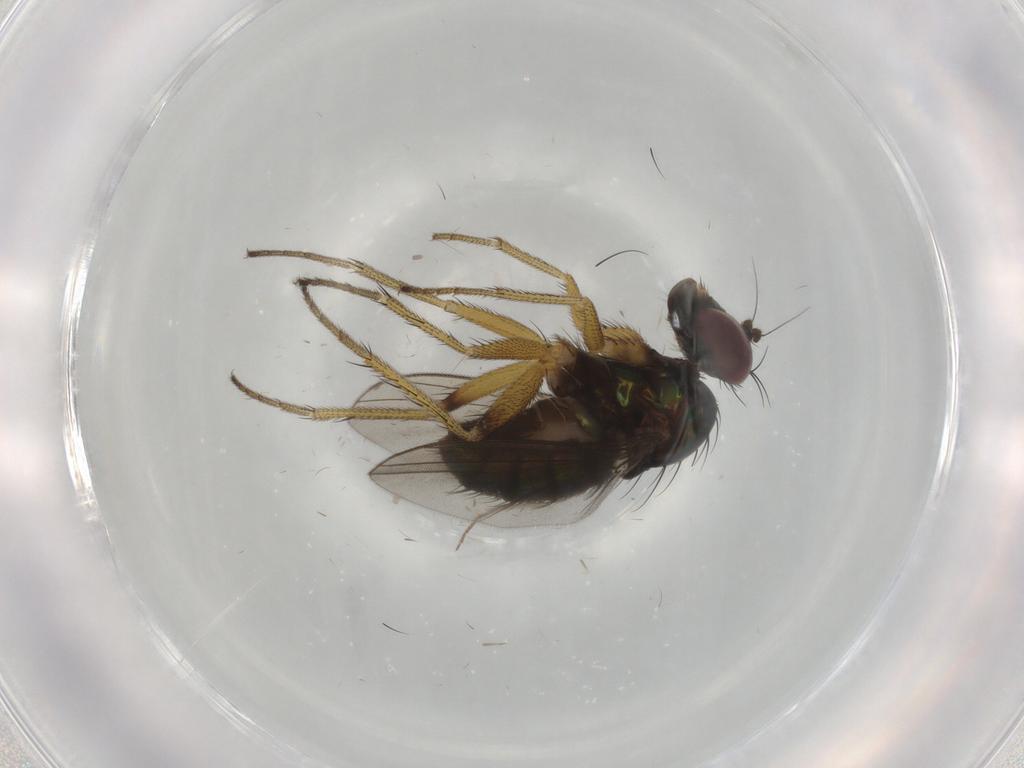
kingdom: Animalia
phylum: Arthropoda
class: Insecta
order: Diptera
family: Dolichopodidae
